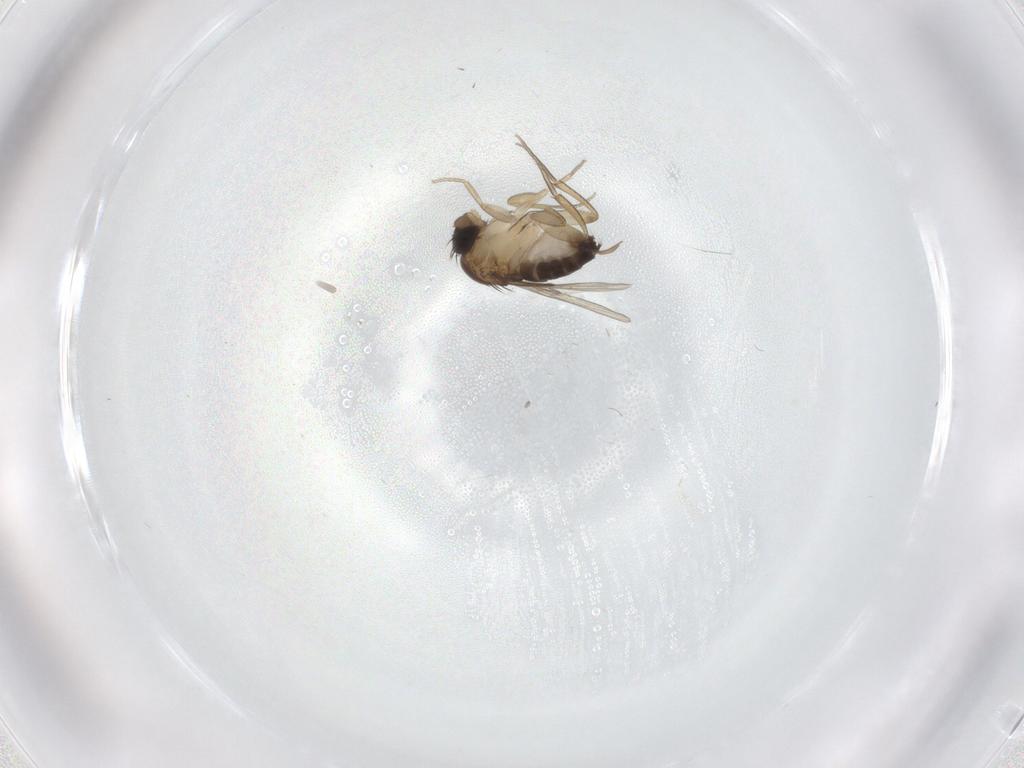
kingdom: Animalia
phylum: Arthropoda
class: Insecta
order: Diptera
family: Cecidomyiidae
